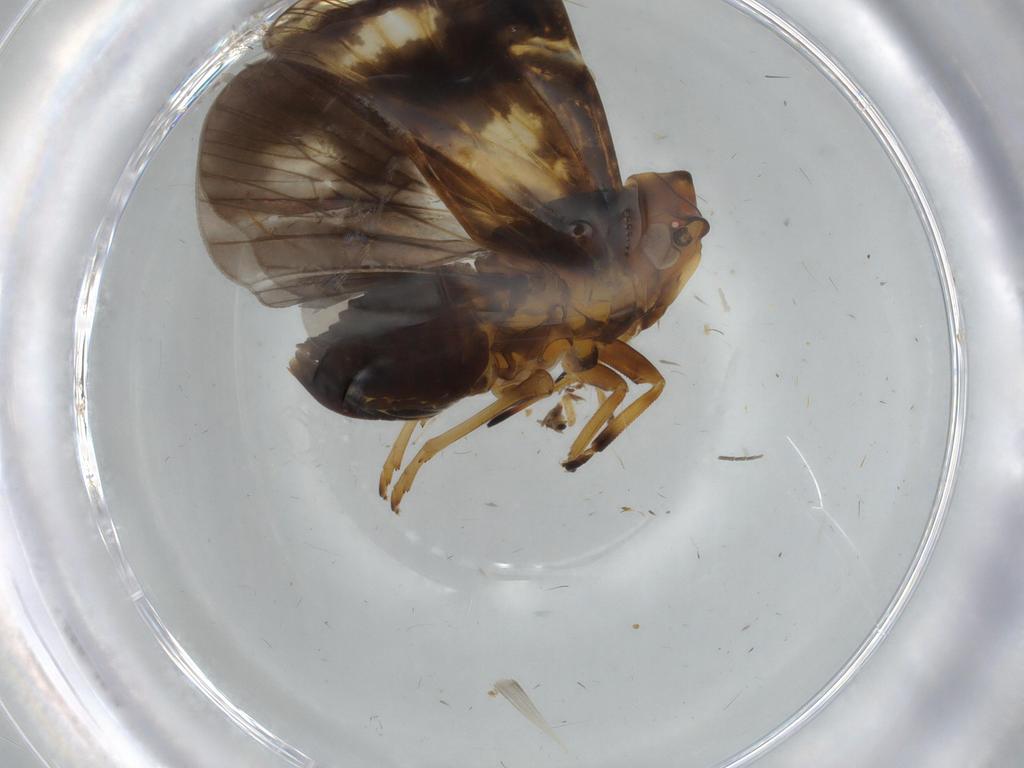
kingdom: Animalia
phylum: Arthropoda
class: Insecta
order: Hemiptera
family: Cixiidae
